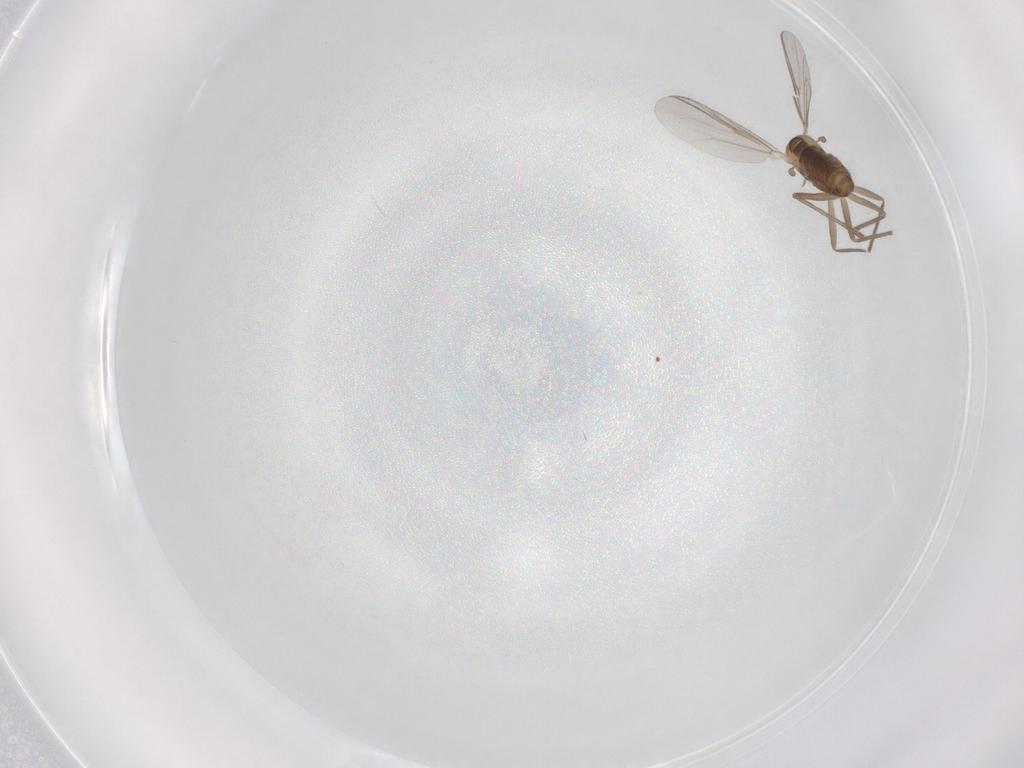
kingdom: Animalia
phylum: Arthropoda
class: Insecta
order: Diptera
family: Chironomidae
